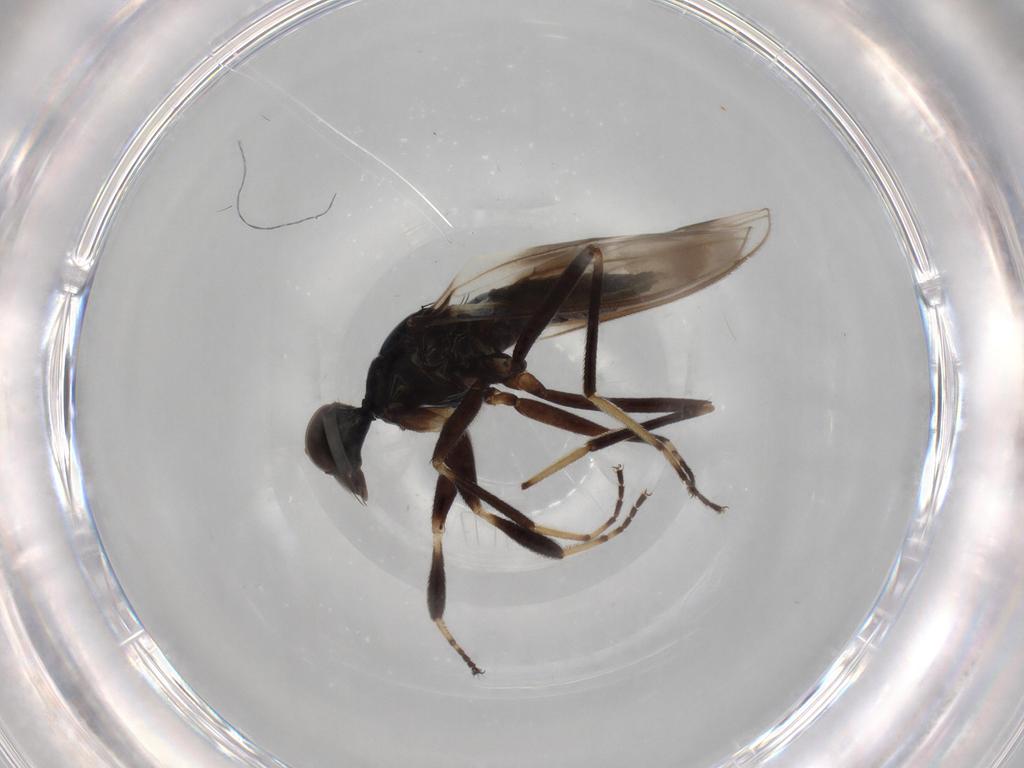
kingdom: Animalia
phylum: Arthropoda
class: Insecta
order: Diptera
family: Hybotidae
